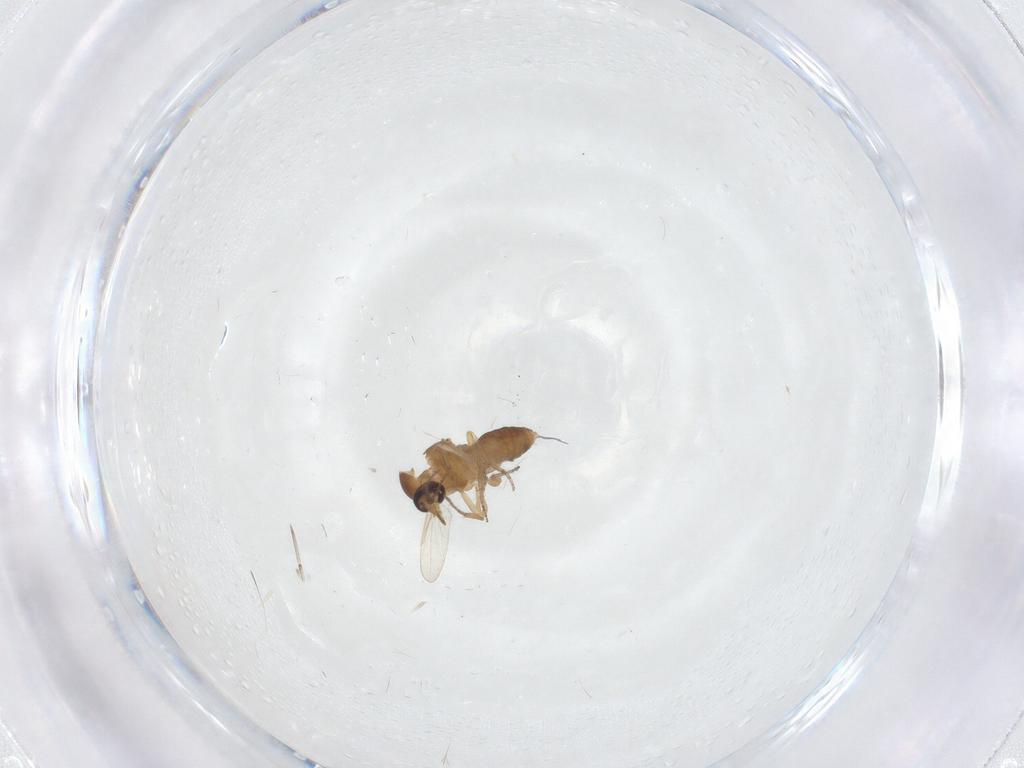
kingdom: Animalia
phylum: Arthropoda
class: Insecta
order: Diptera
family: Ceratopogonidae
